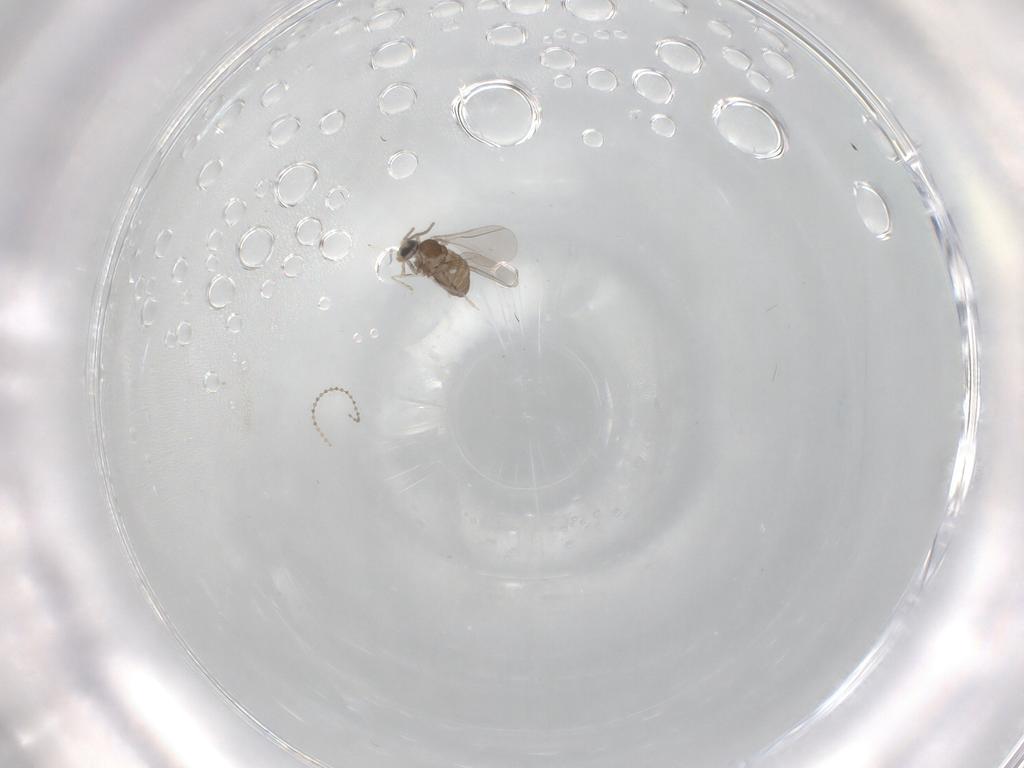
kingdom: Animalia
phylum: Arthropoda
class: Insecta
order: Diptera
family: Cecidomyiidae
